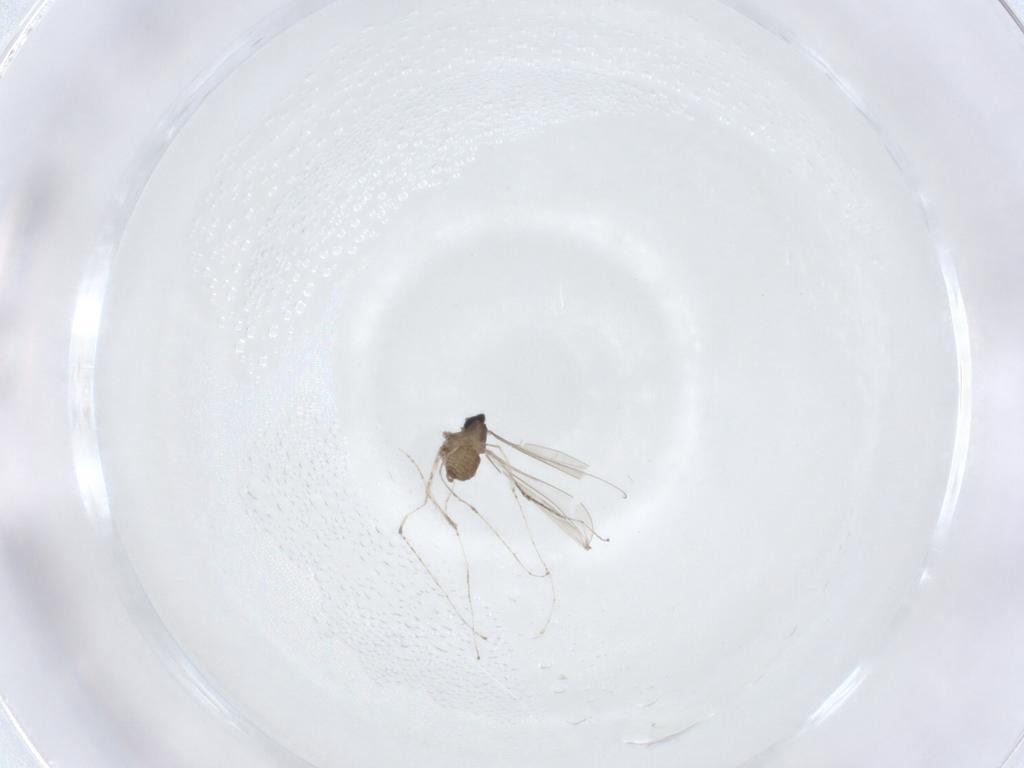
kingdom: Animalia
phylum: Arthropoda
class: Insecta
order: Diptera
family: Cecidomyiidae
